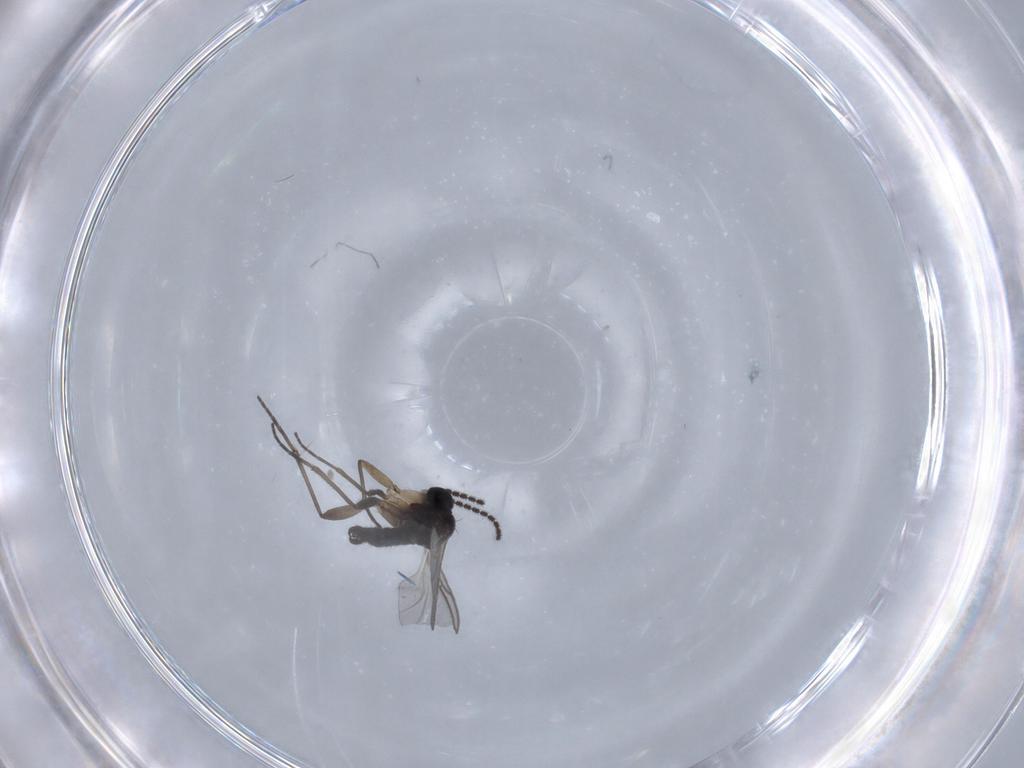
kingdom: Animalia
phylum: Arthropoda
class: Insecta
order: Diptera
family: Sciaridae
